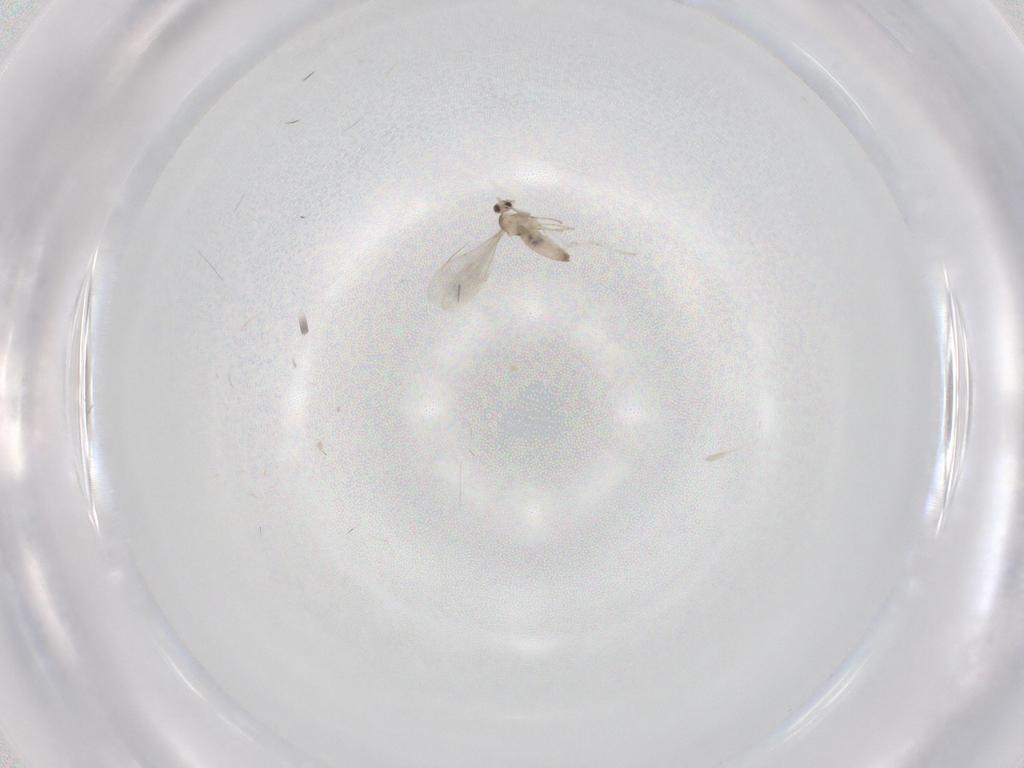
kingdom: Animalia
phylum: Arthropoda
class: Insecta
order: Diptera
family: Cecidomyiidae
